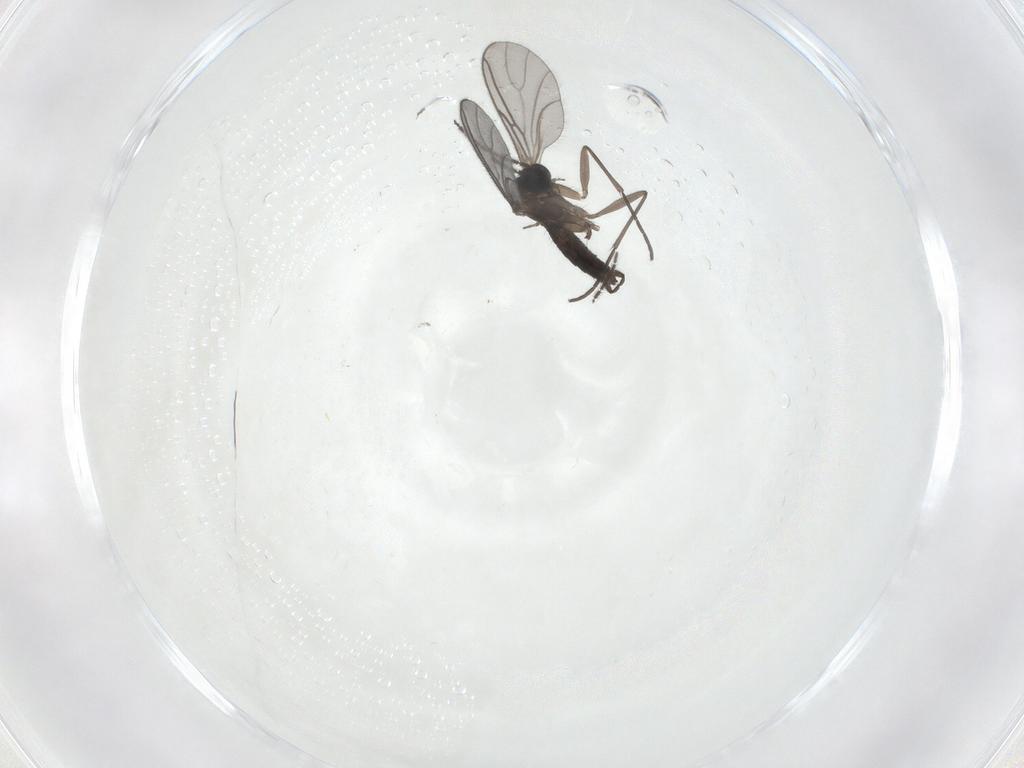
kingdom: Animalia
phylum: Arthropoda
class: Insecta
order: Diptera
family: Sciaridae
